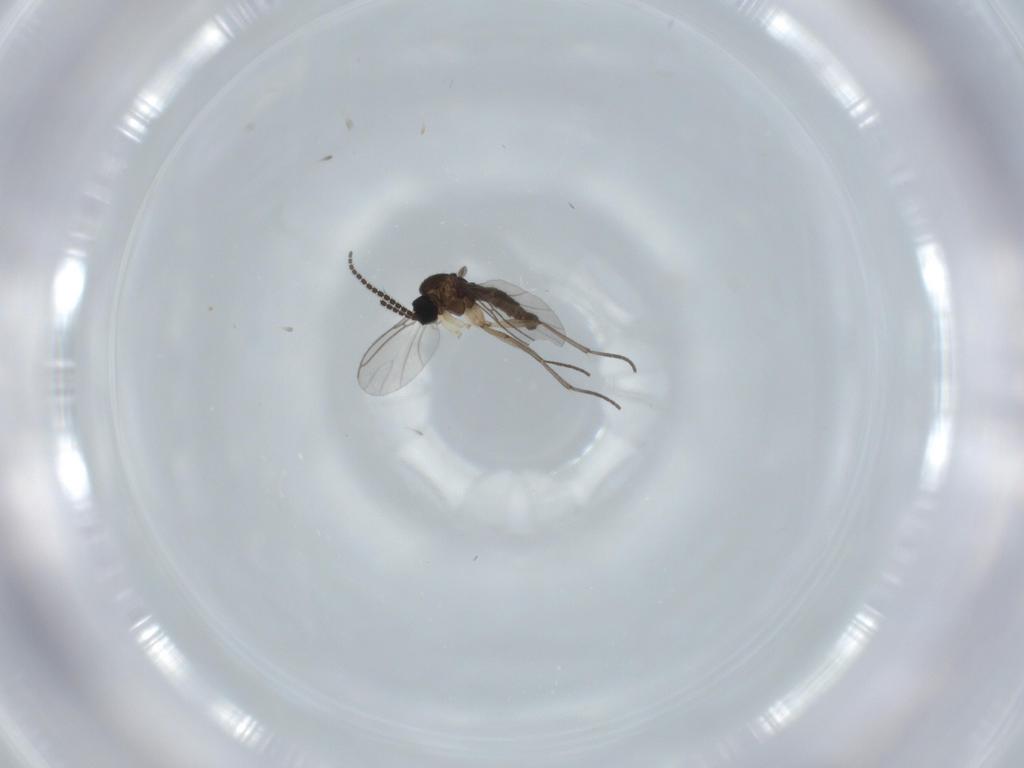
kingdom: Animalia
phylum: Arthropoda
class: Insecta
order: Diptera
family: Sciaridae
